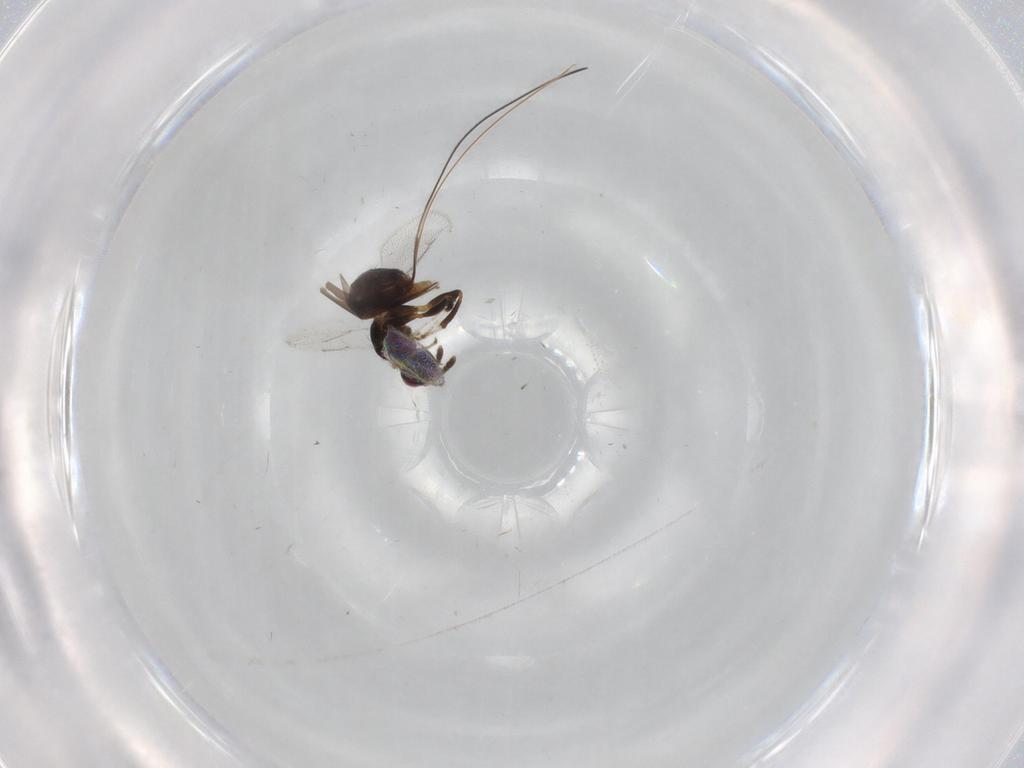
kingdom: Animalia
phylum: Arthropoda
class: Insecta
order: Hymenoptera
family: Torymidae
